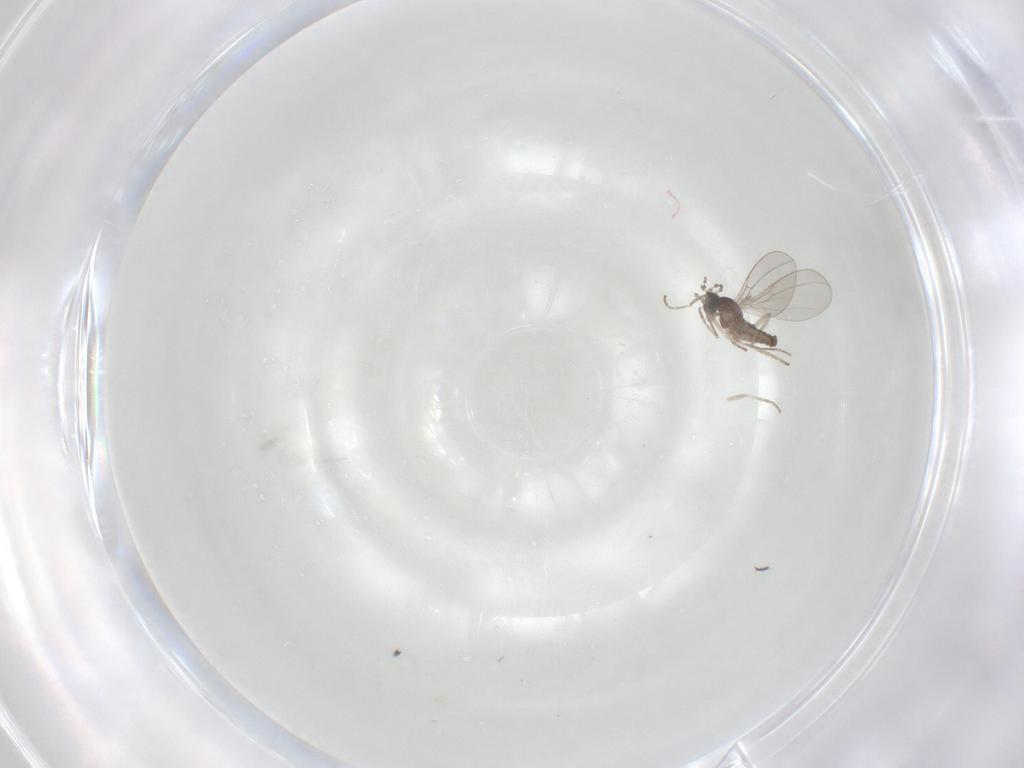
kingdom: Animalia
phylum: Arthropoda
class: Insecta
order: Diptera
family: Cecidomyiidae
